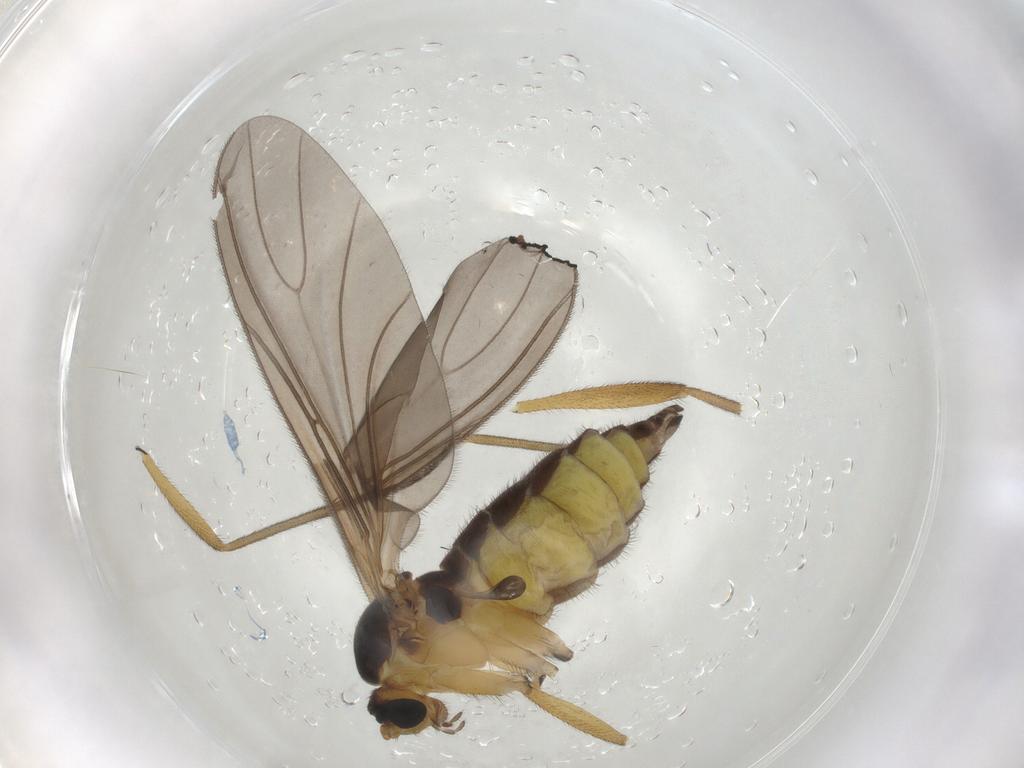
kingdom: Animalia
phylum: Arthropoda
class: Insecta
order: Diptera
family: Sciaridae
